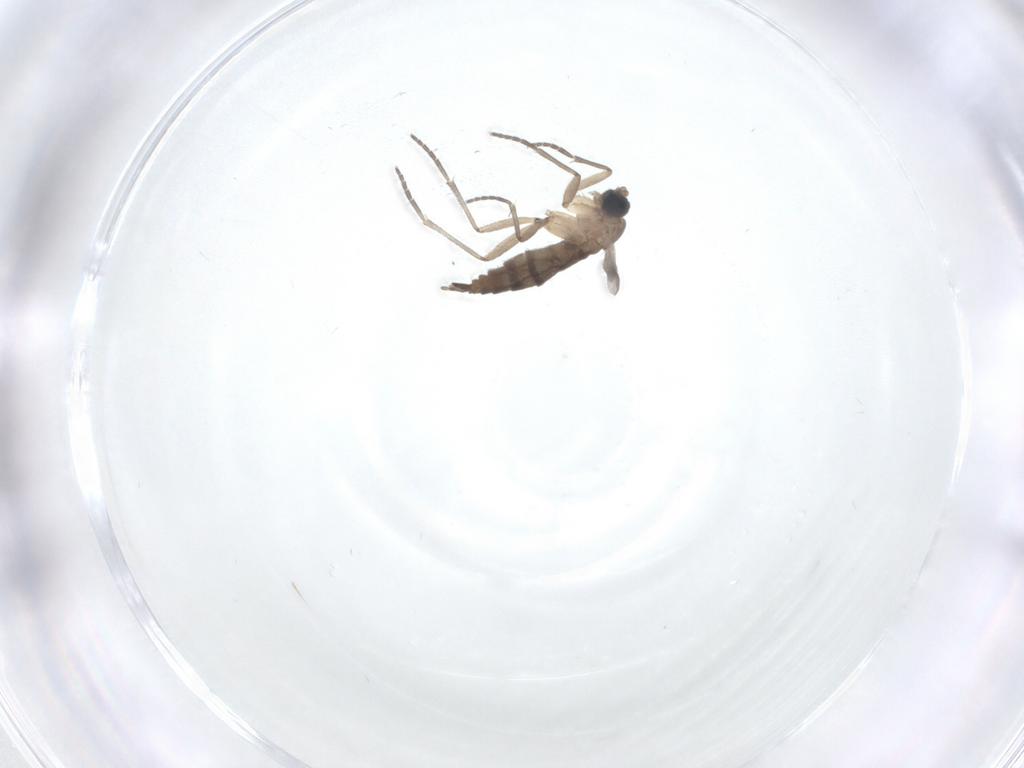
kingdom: Animalia
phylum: Arthropoda
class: Insecta
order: Diptera
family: Sciaridae
